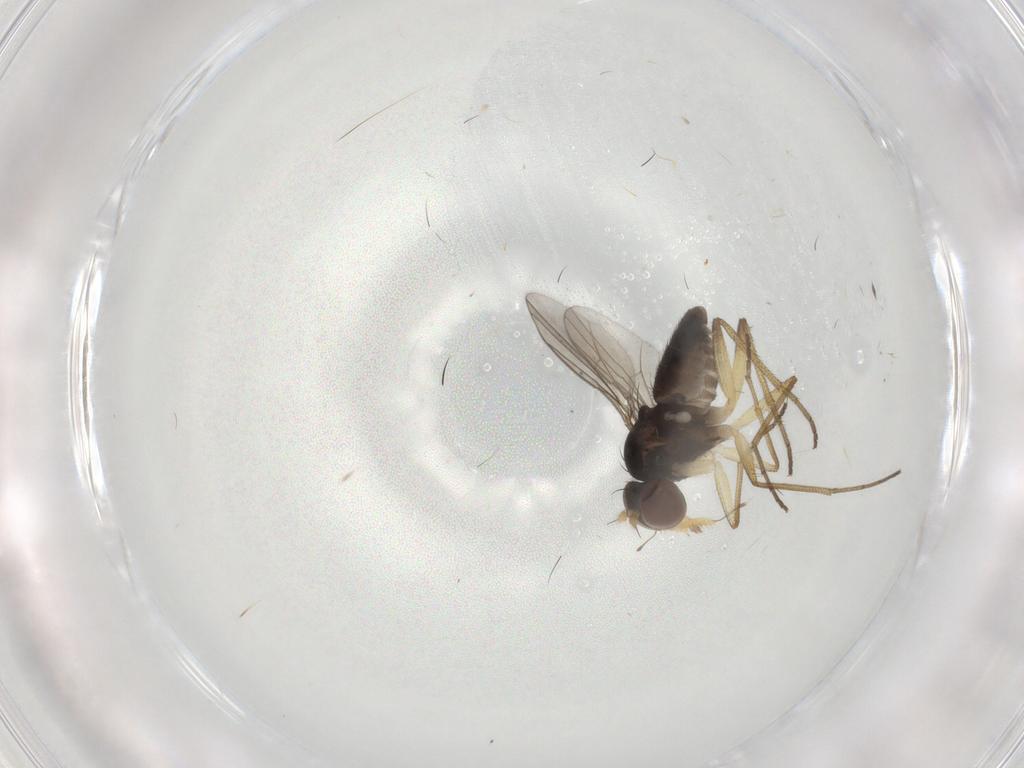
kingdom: Animalia
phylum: Arthropoda
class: Insecta
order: Diptera
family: Dolichopodidae
